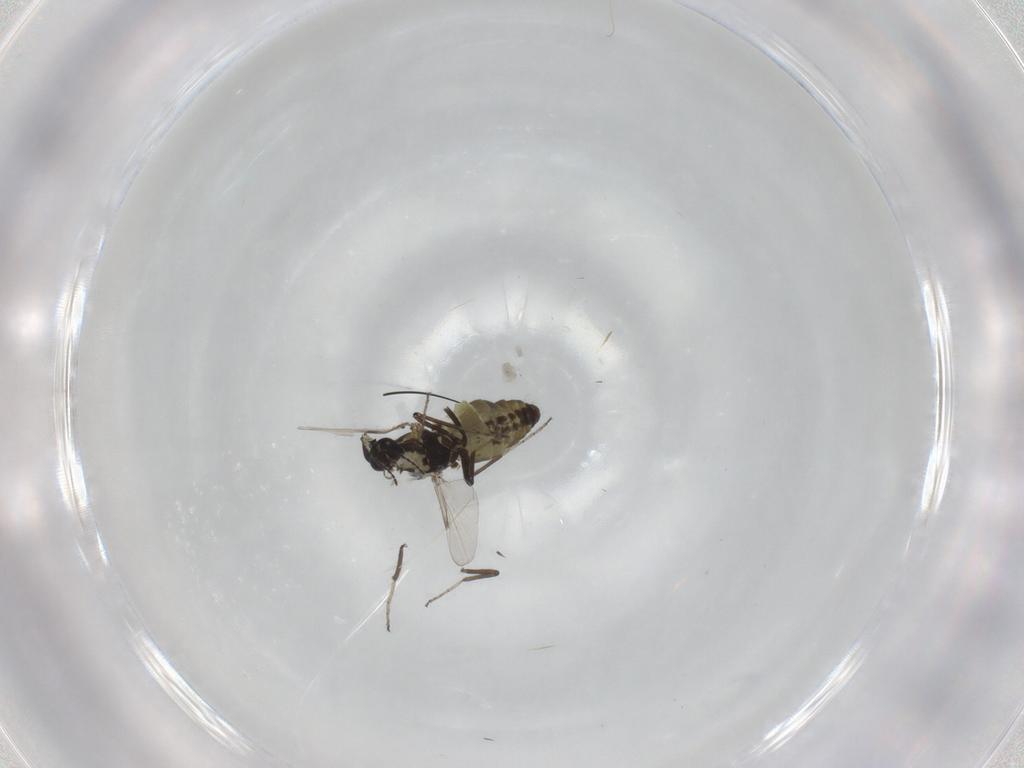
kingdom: Animalia
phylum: Arthropoda
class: Insecta
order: Diptera
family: Ceratopogonidae
